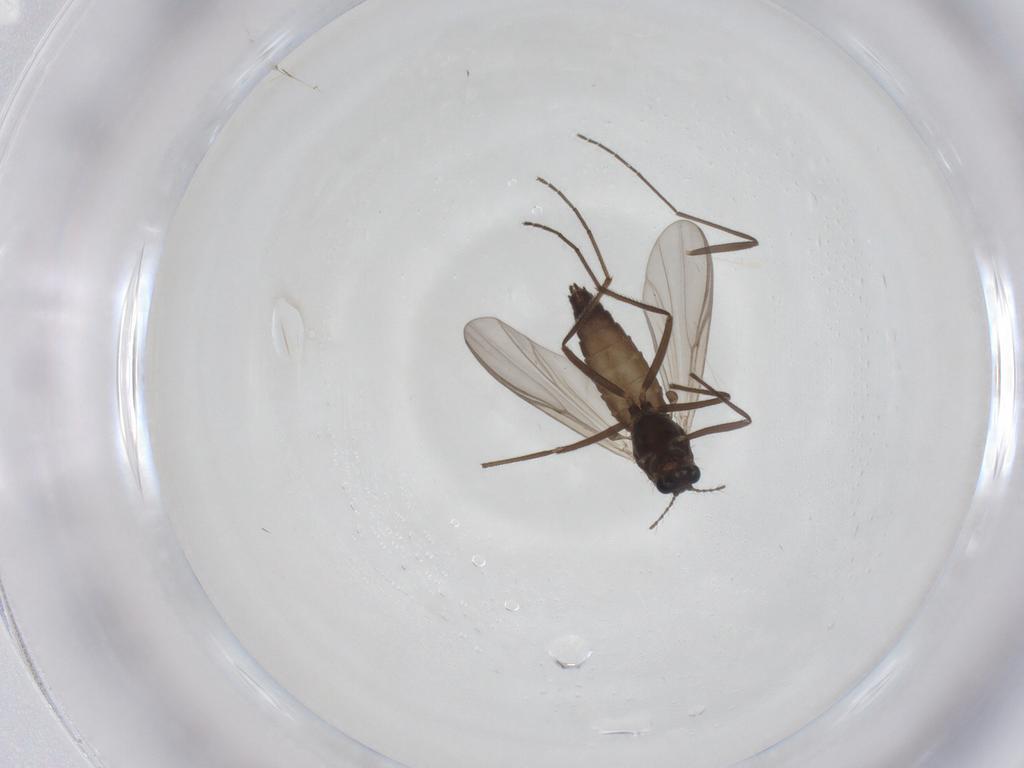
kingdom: Animalia
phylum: Arthropoda
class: Insecta
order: Diptera
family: Chironomidae
